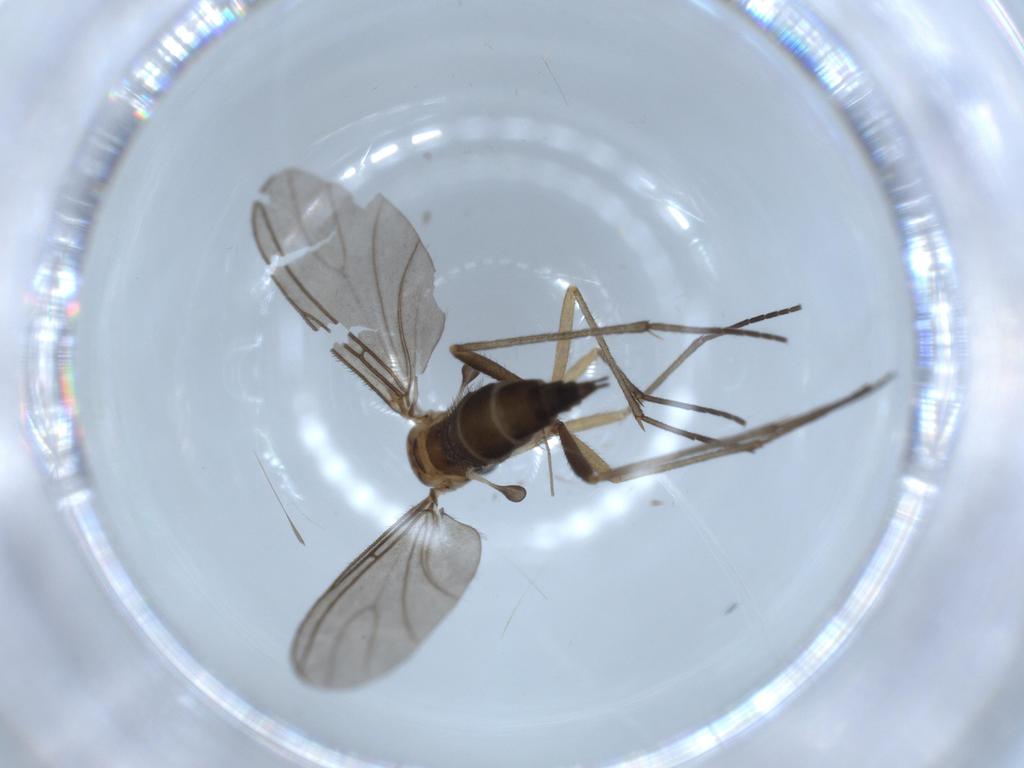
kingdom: Animalia
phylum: Arthropoda
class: Insecta
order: Diptera
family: Sciaridae
